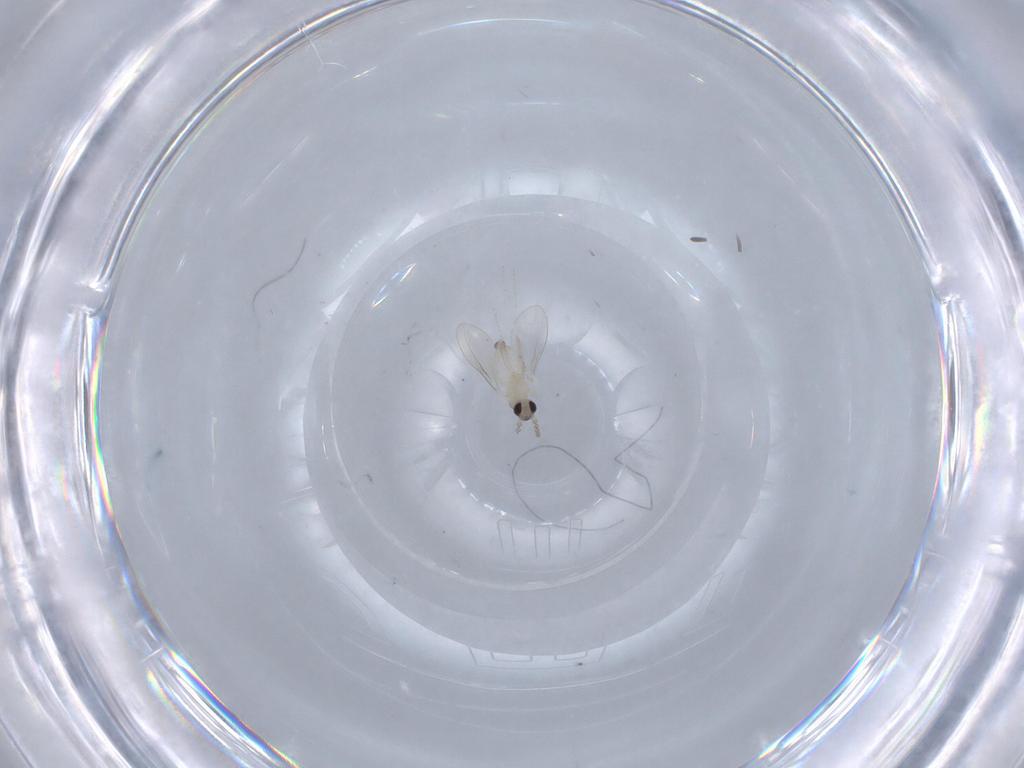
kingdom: Animalia
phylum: Arthropoda
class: Insecta
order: Diptera
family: Cecidomyiidae
